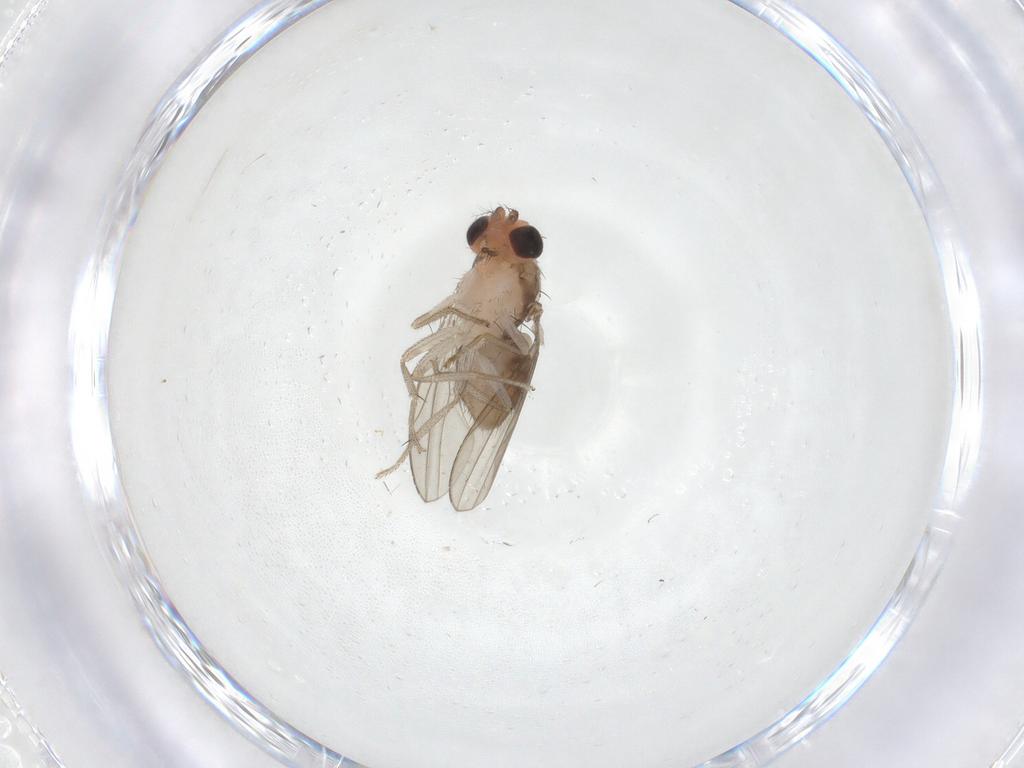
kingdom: Animalia
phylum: Arthropoda
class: Insecta
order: Diptera
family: Drosophilidae
